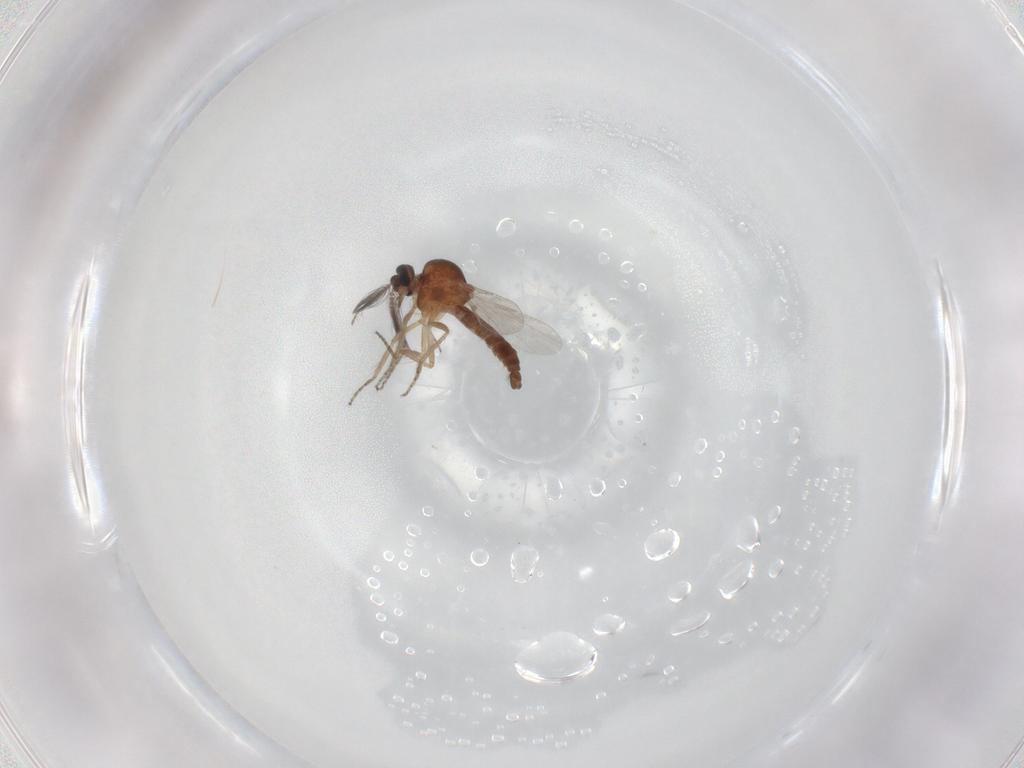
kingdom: Animalia
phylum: Arthropoda
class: Insecta
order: Diptera
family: Ceratopogonidae
